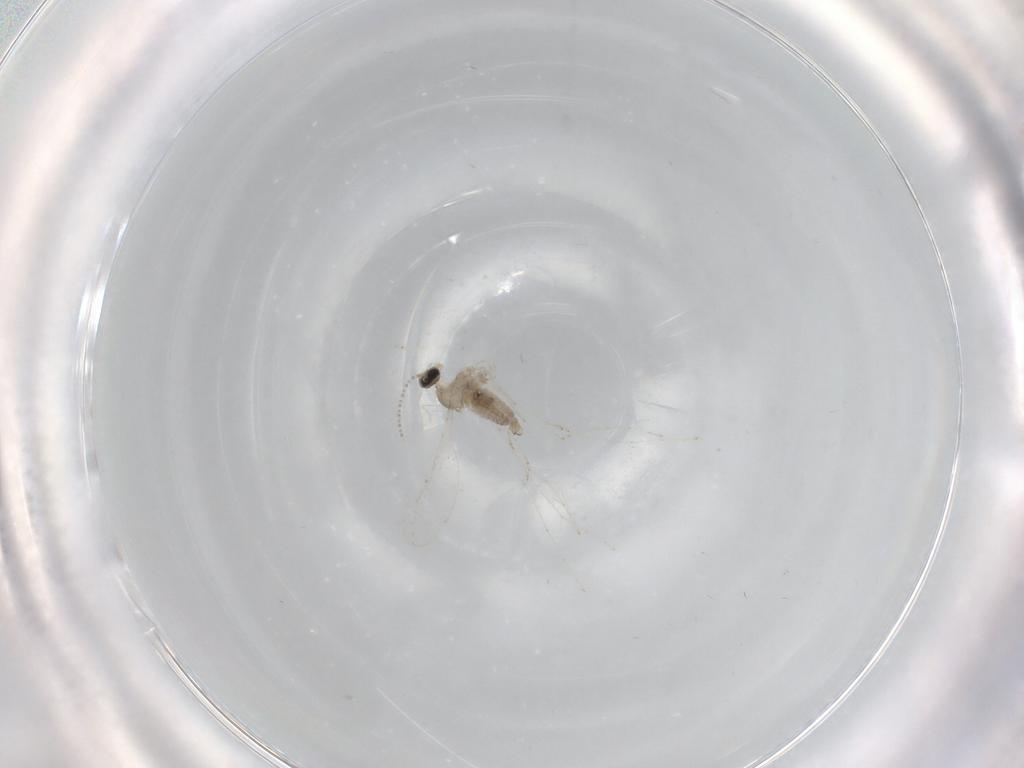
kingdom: Animalia
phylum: Arthropoda
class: Insecta
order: Diptera
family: Cecidomyiidae
